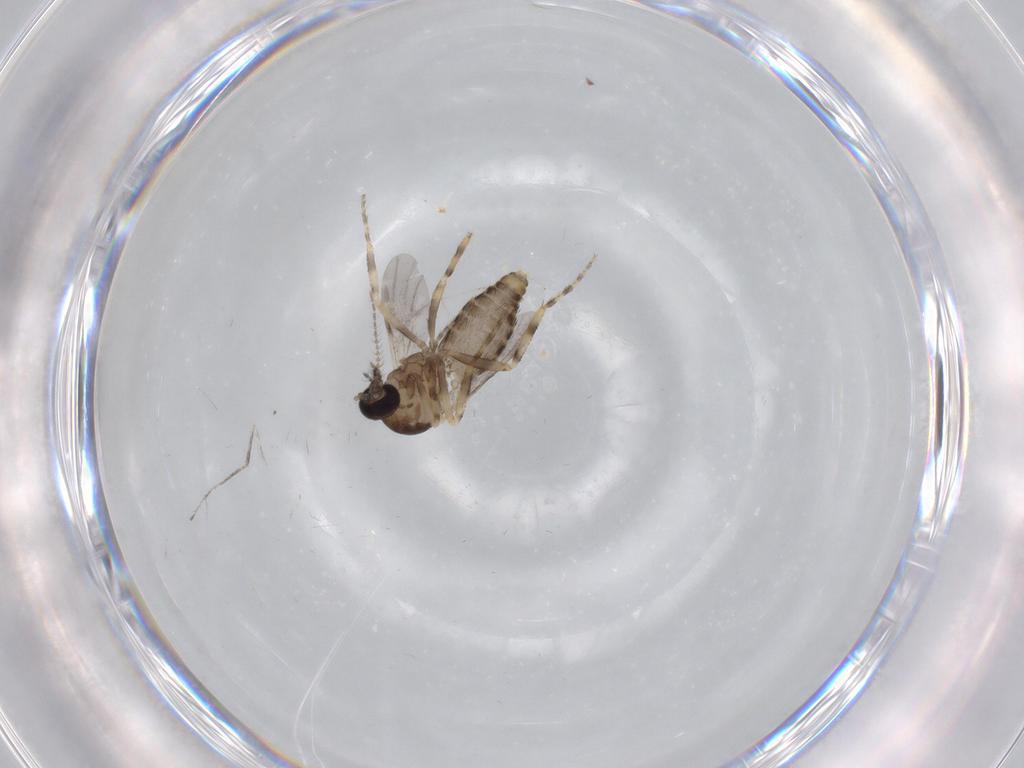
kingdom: Animalia
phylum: Arthropoda
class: Insecta
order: Diptera
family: Ceratopogonidae
